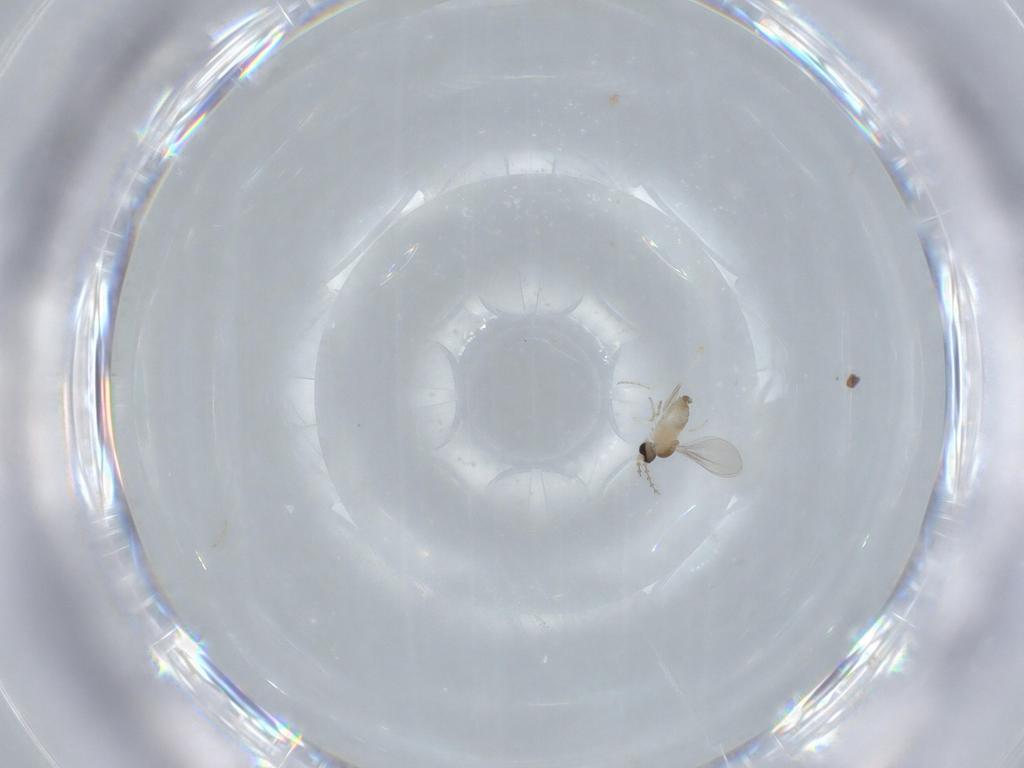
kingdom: Animalia
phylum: Arthropoda
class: Insecta
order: Diptera
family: Cecidomyiidae
